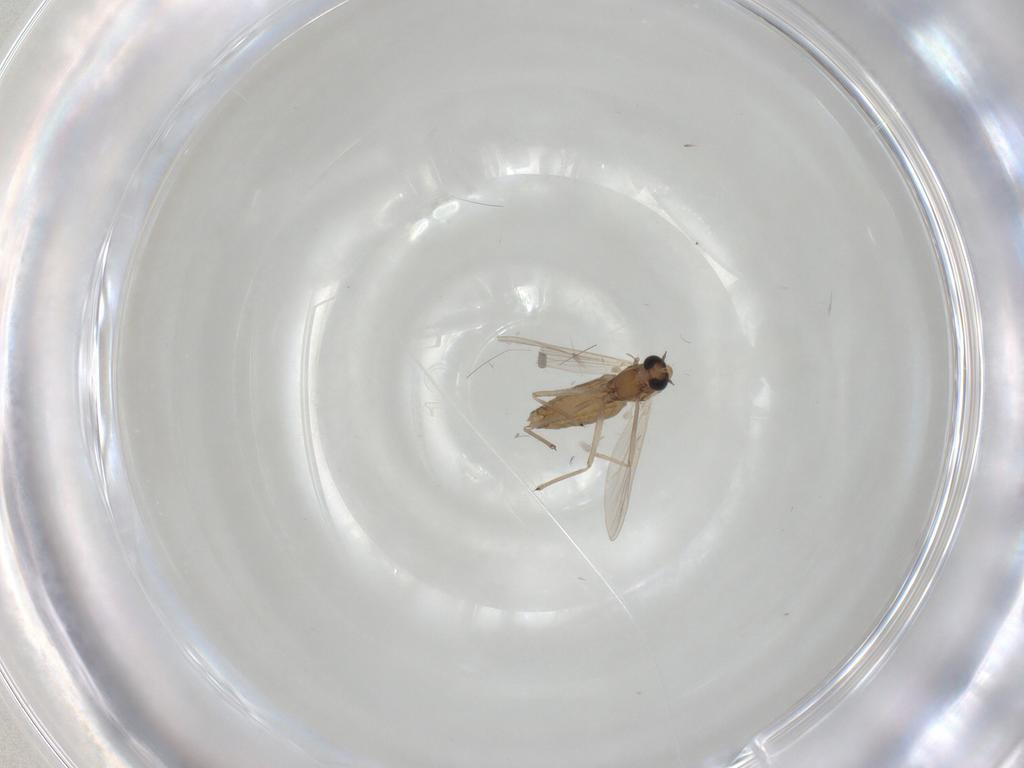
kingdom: Animalia
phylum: Arthropoda
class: Insecta
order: Diptera
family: Chironomidae
